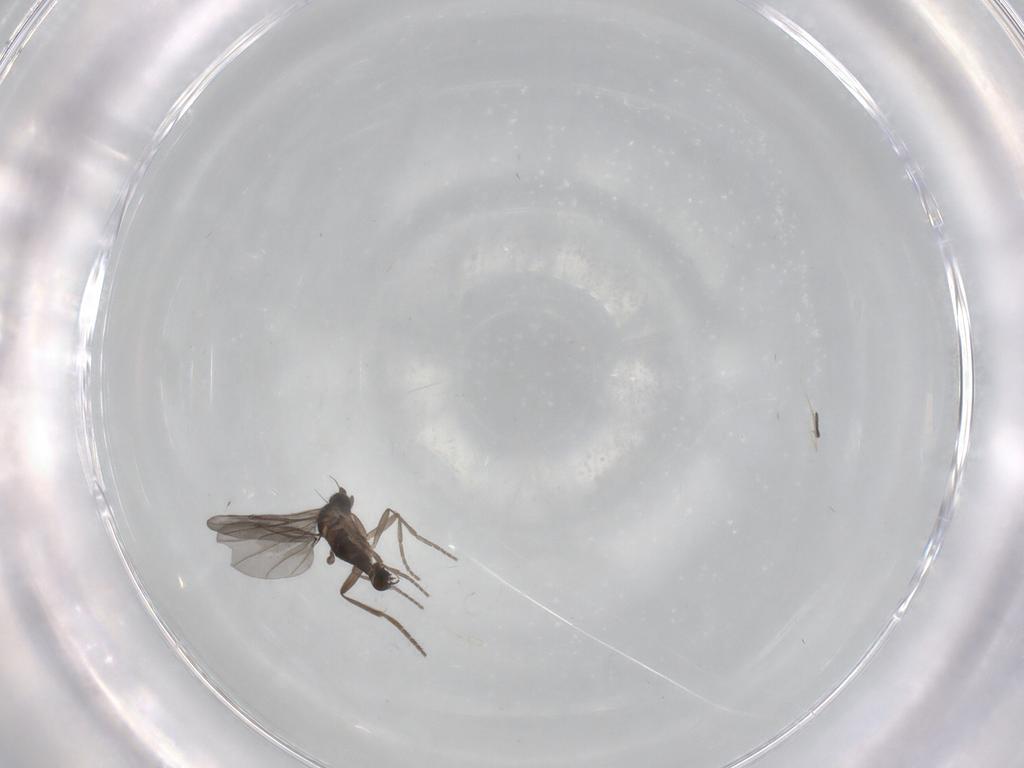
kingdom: Animalia
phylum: Arthropoda
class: Insecta
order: Diptera
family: Phoridae
